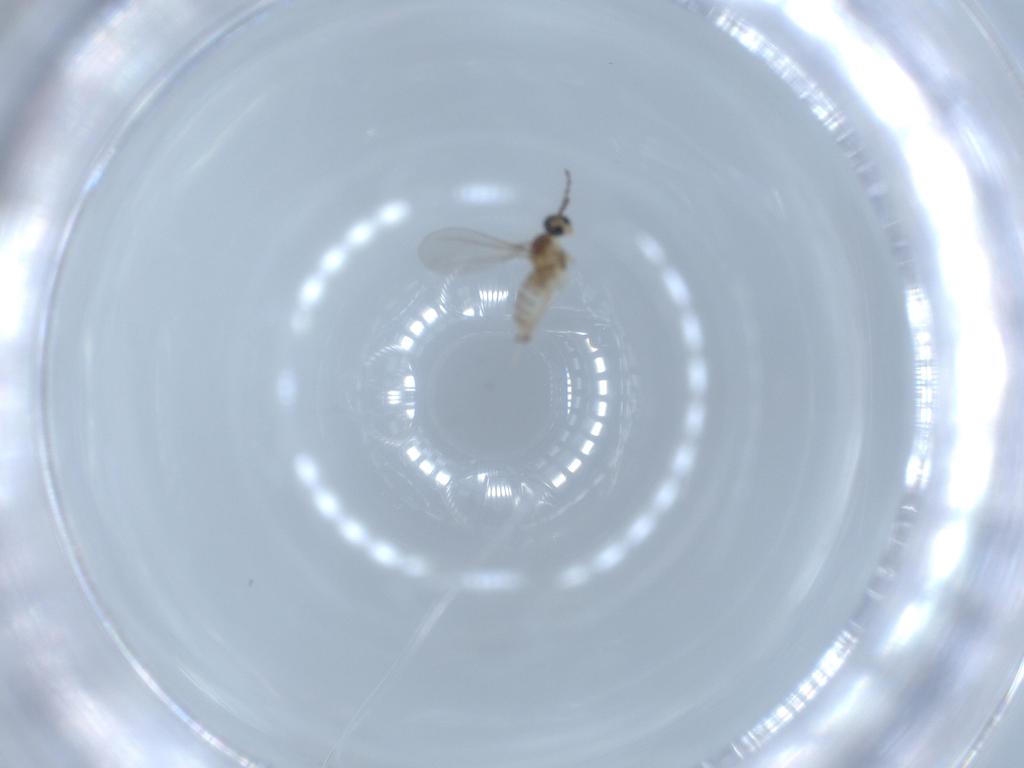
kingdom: Animalia
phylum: Arthropoda
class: Insecta
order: Diptera
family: Cecidomyiidae
